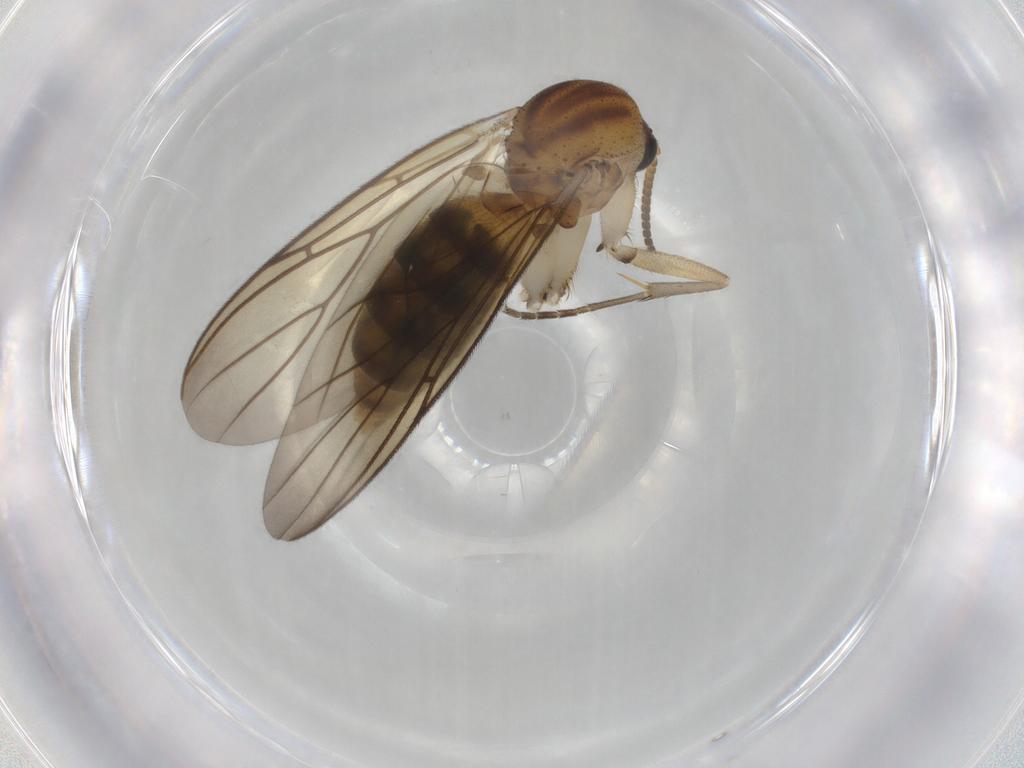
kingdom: Animalia
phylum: Arthropoda
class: Insecta
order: Diptera
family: Mycetophilidae
